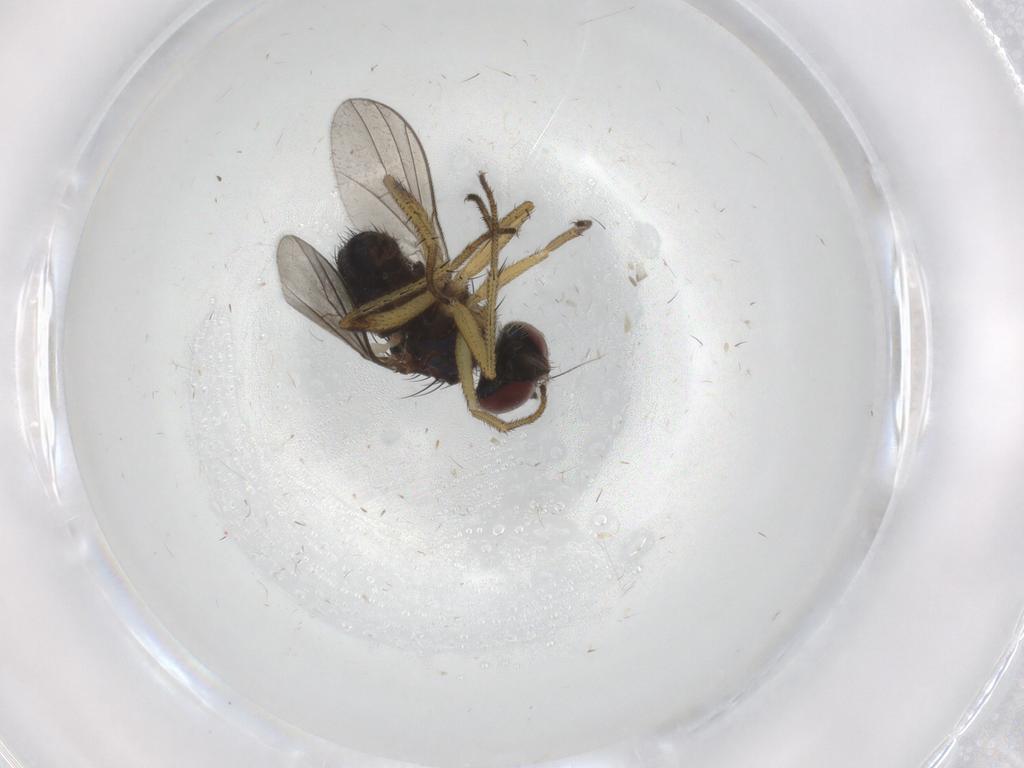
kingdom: Animalia
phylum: Arthropoda
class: Insecta
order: Diptera
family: Dolichopodidae
